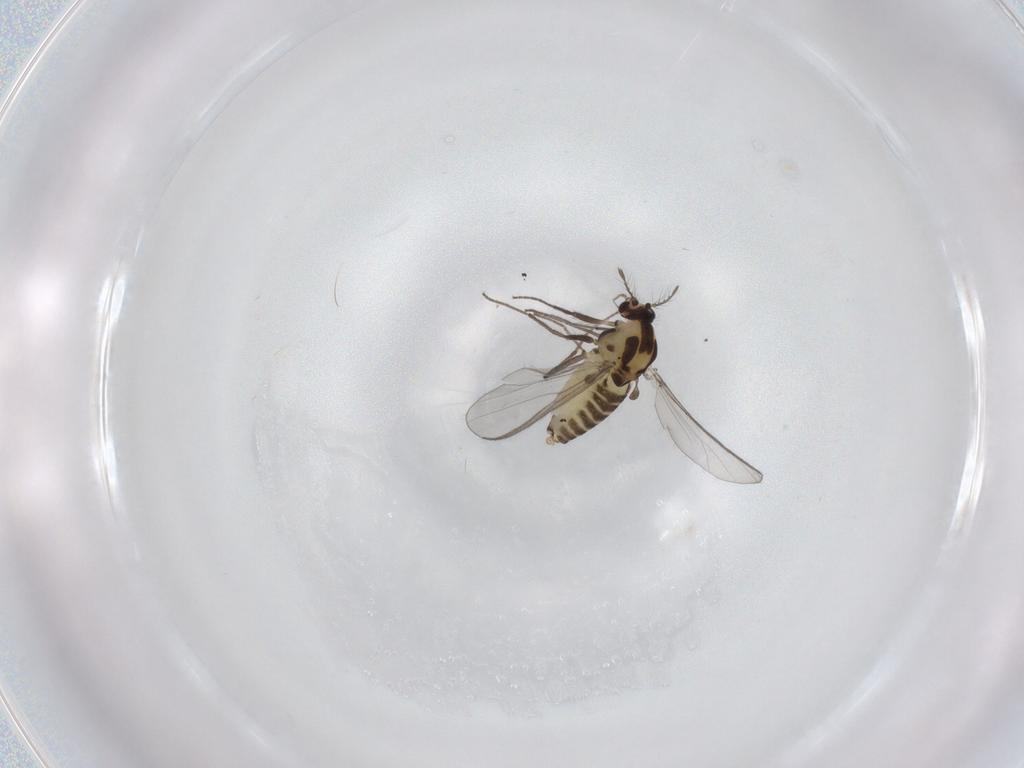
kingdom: Animalia
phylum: Arthropoda
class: Insecta
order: Diptera
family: Chironomidae
